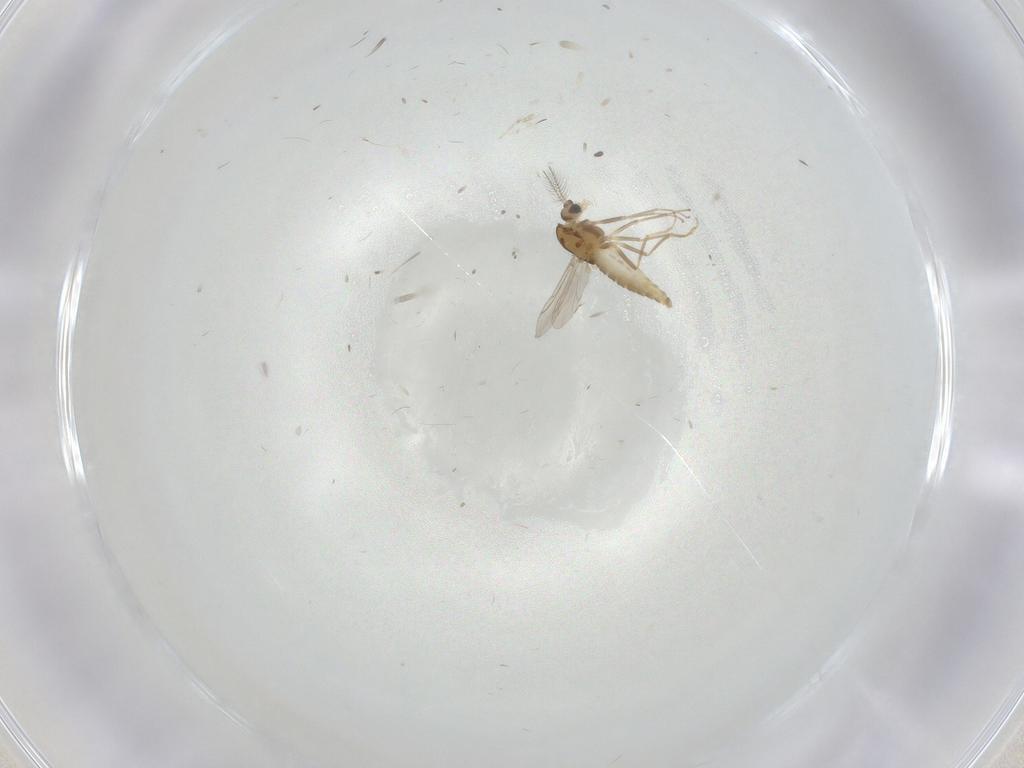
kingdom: Animalia
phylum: Arthropoda
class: Insecta
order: Diptera
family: Chironomidae
